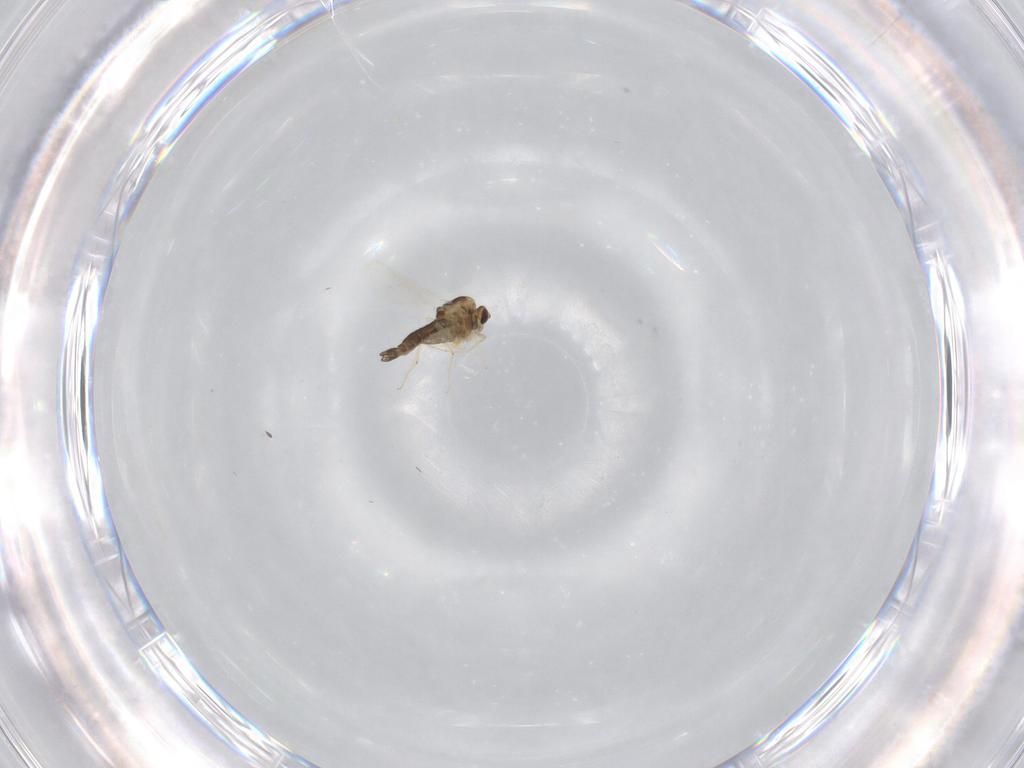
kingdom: Animalia
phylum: Arthropoda
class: Insecta
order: Diptera
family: Chironomidae
